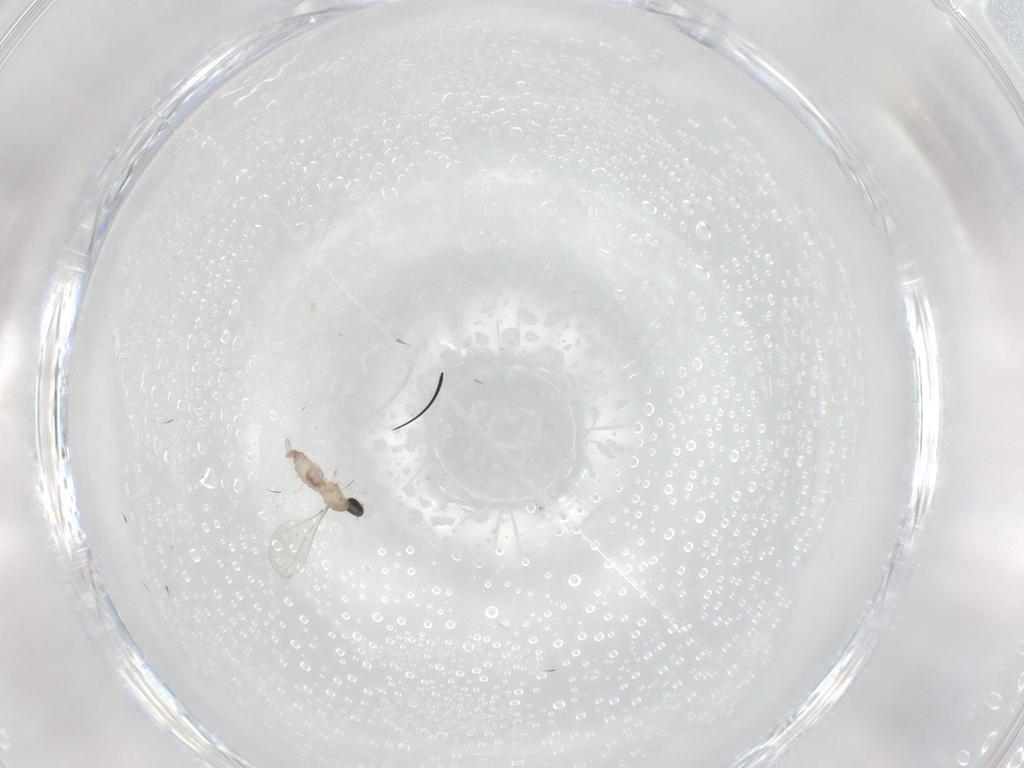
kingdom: Animalia
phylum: Arthropoda
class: Insecta
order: Diptera
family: Cecidomyiidae
